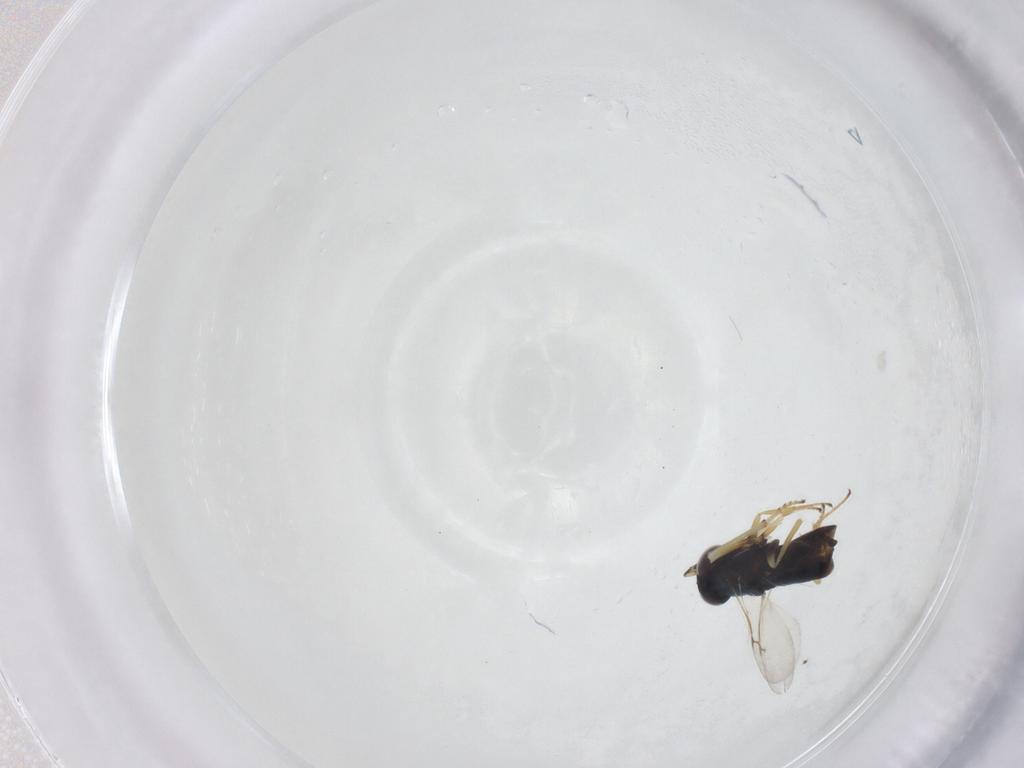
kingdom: Animalia
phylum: Arthropoda
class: Insecta
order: Hymenoptera
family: Encyrtidae
